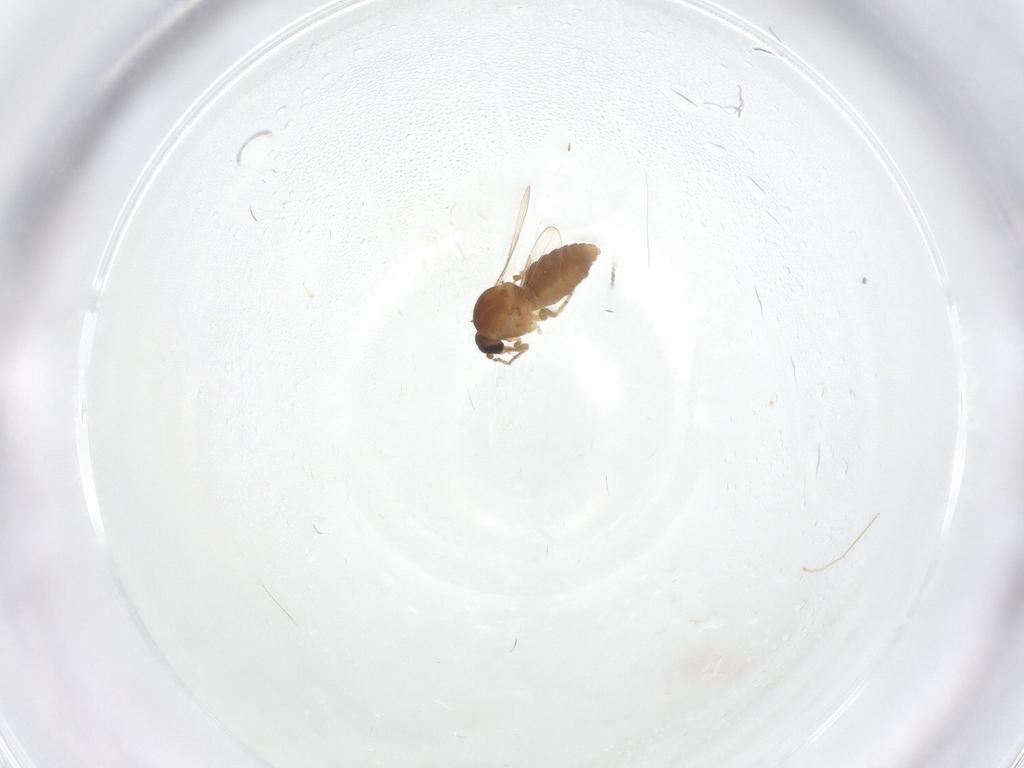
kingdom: Animalia
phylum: Arthropoda
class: Insecta
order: Diptera
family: Ceratopogonidae
